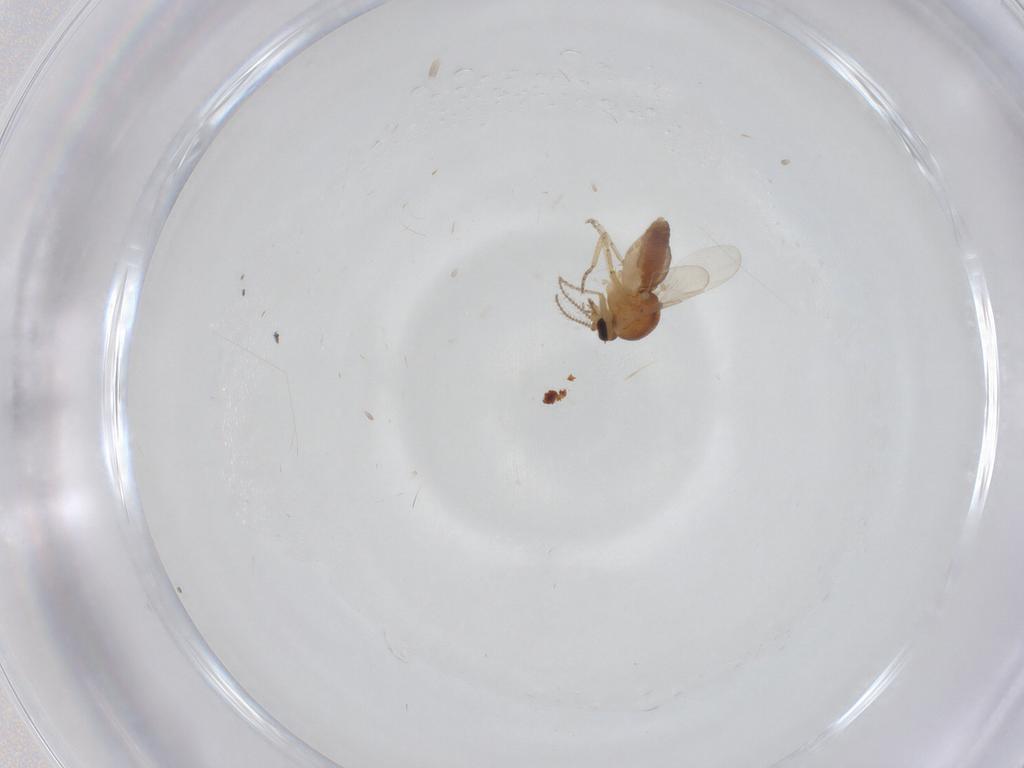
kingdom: Animalia
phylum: Arthropoda
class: Insecta
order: Diptera
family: Ceratopogonidae
